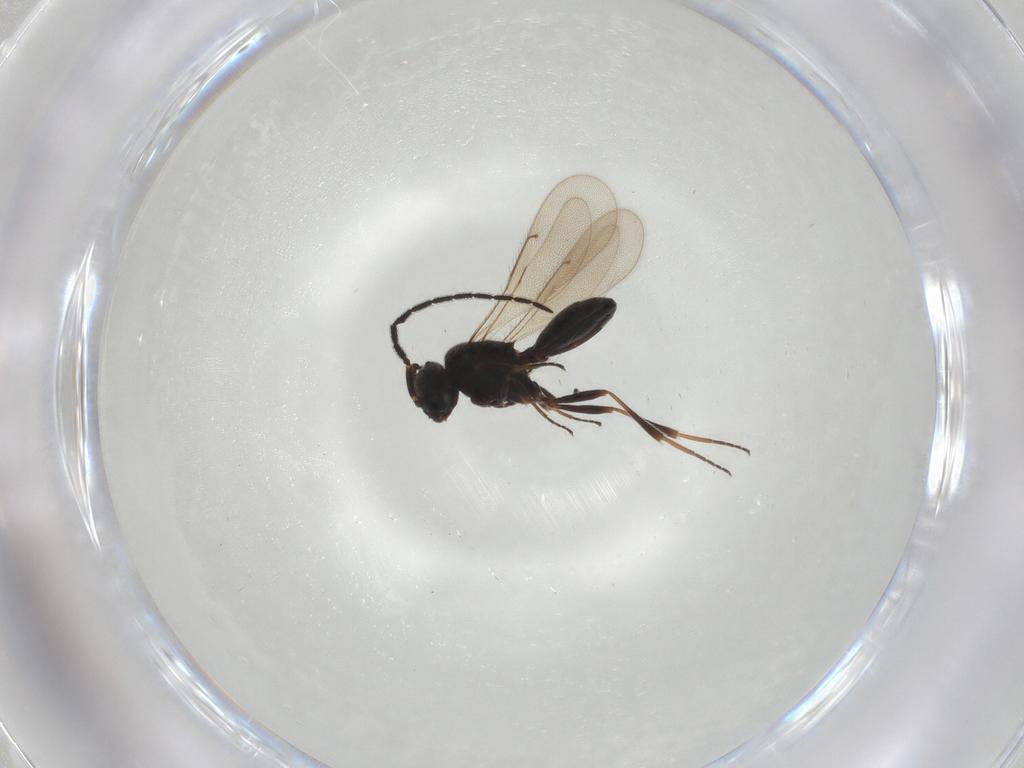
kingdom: Animalia
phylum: Arthropoda
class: Insecta
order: Hymenoptera
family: Scelionidae
